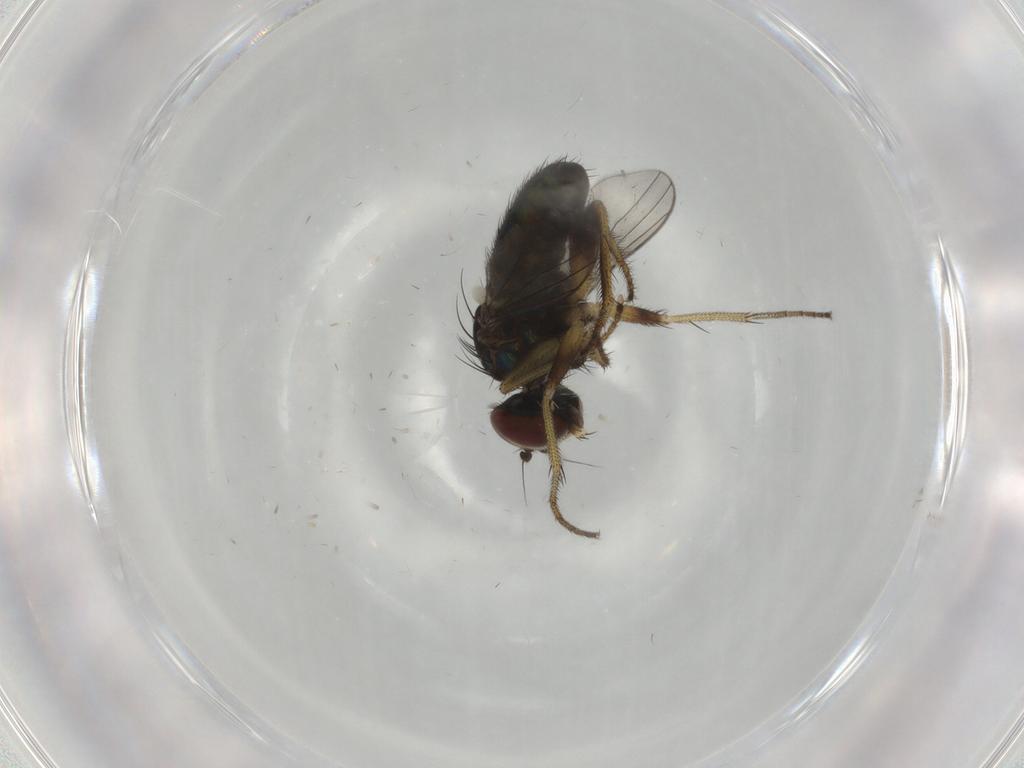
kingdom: Animalia
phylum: Arthropoda
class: Insecta
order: Diptera
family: Dolichopodidae
